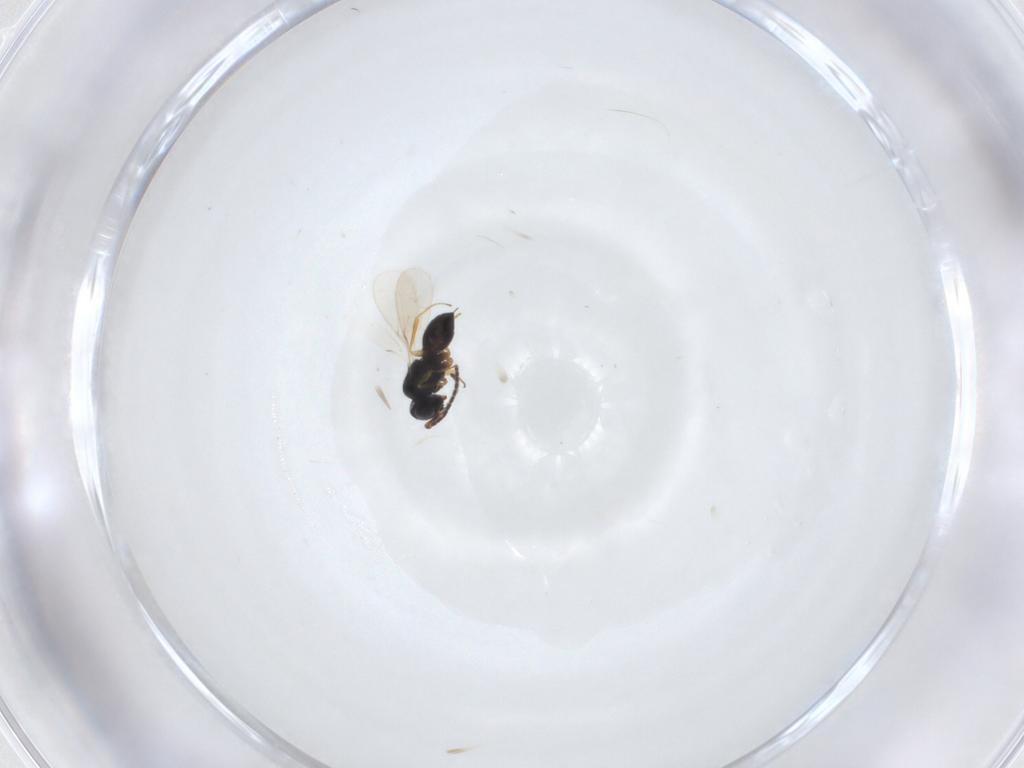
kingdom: Animalia
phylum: Arthropoda
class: Insecta
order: Hymenoptera
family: Scelionidae
